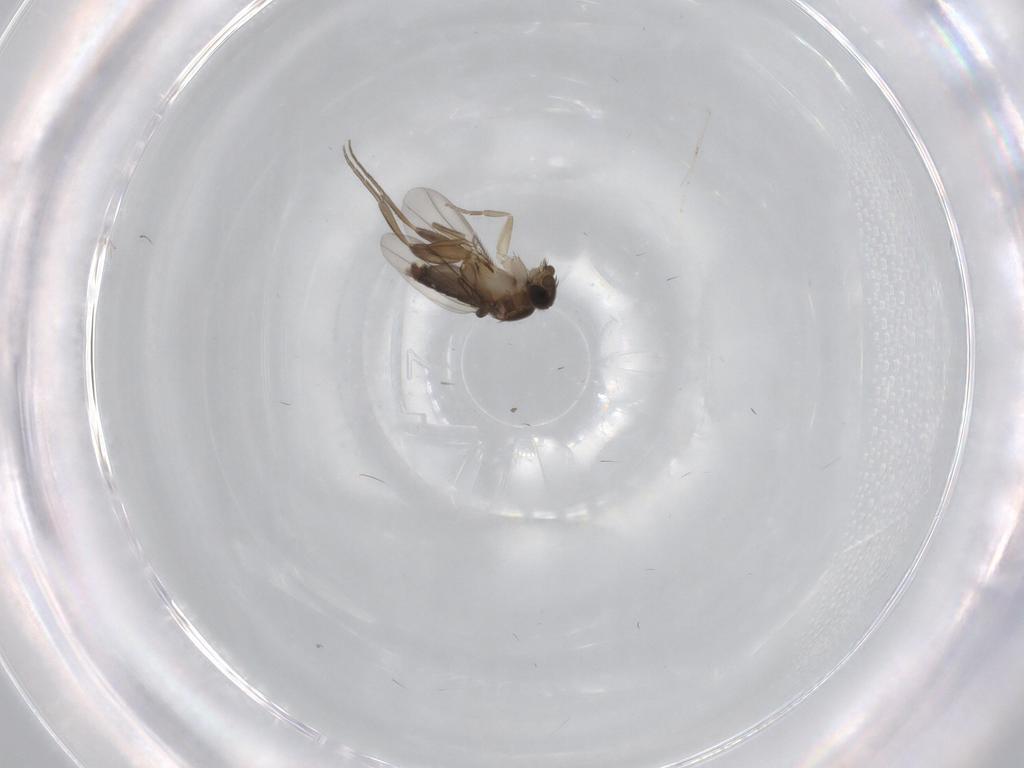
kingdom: Animalia
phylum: Arthropoda
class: Insecta
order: Diptera
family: Phoridae
